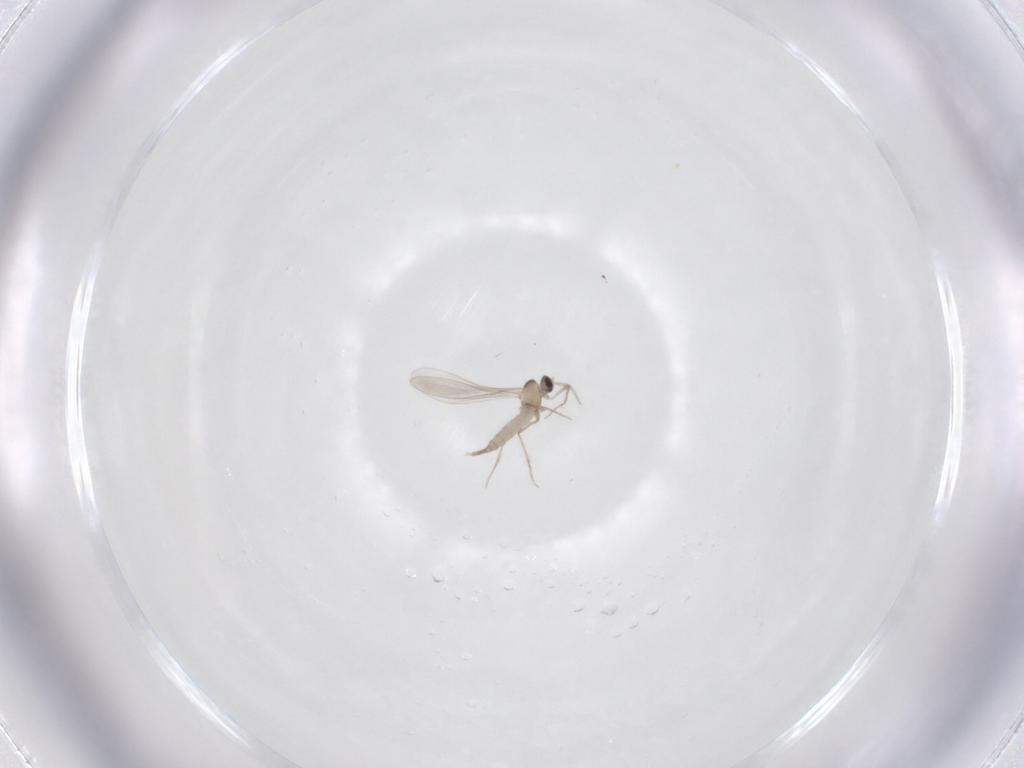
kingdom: Animalia
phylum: Arthropoda
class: Insecta
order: Diptera
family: Cecidomyiidae
